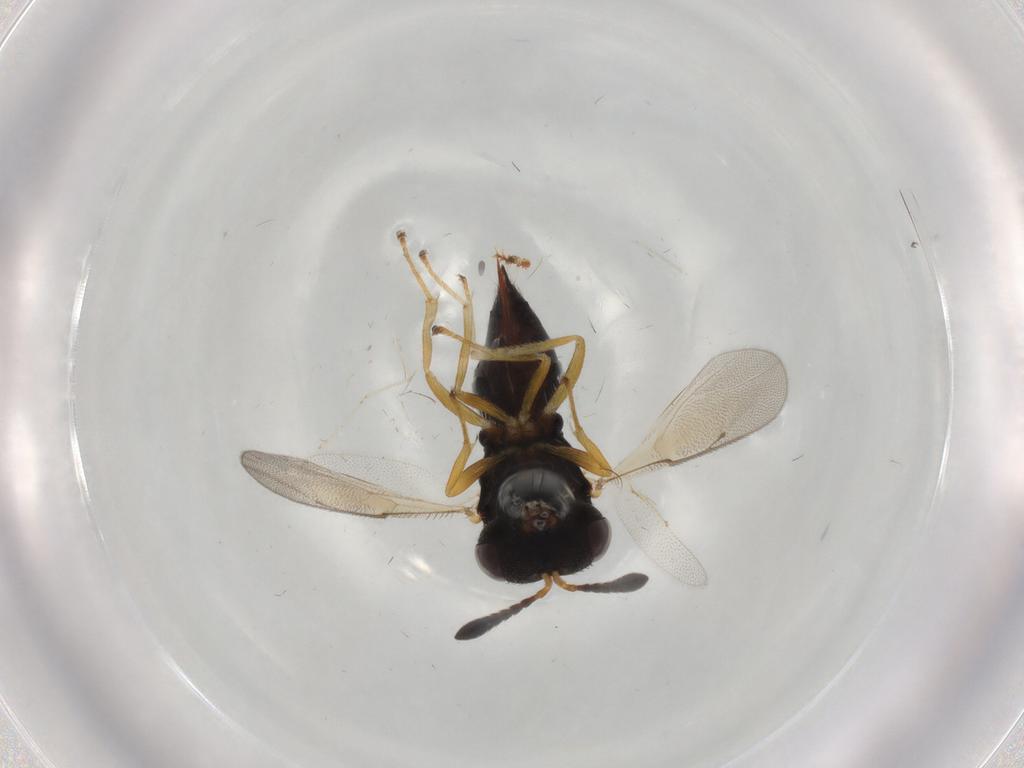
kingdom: Animalia
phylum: Arthropoda
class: Insecta
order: Hymenoptera
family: Pteromalidae
